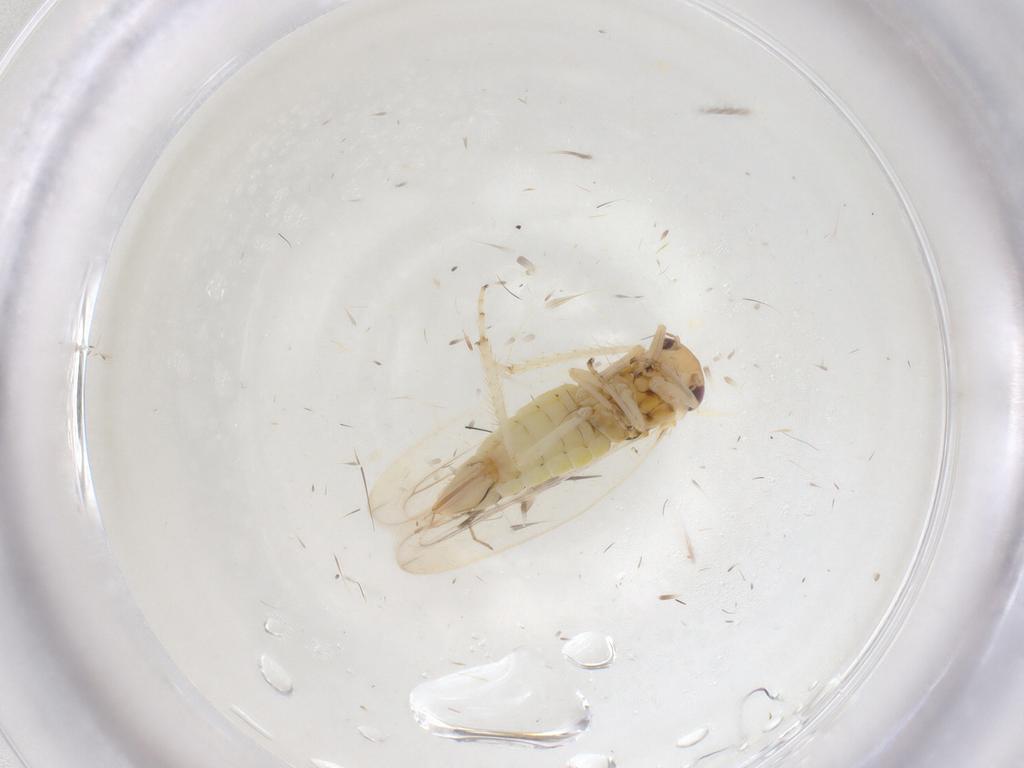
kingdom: Animalia
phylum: Arthropoda
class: Insecta
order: Hemiptera
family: Cicadellidae
